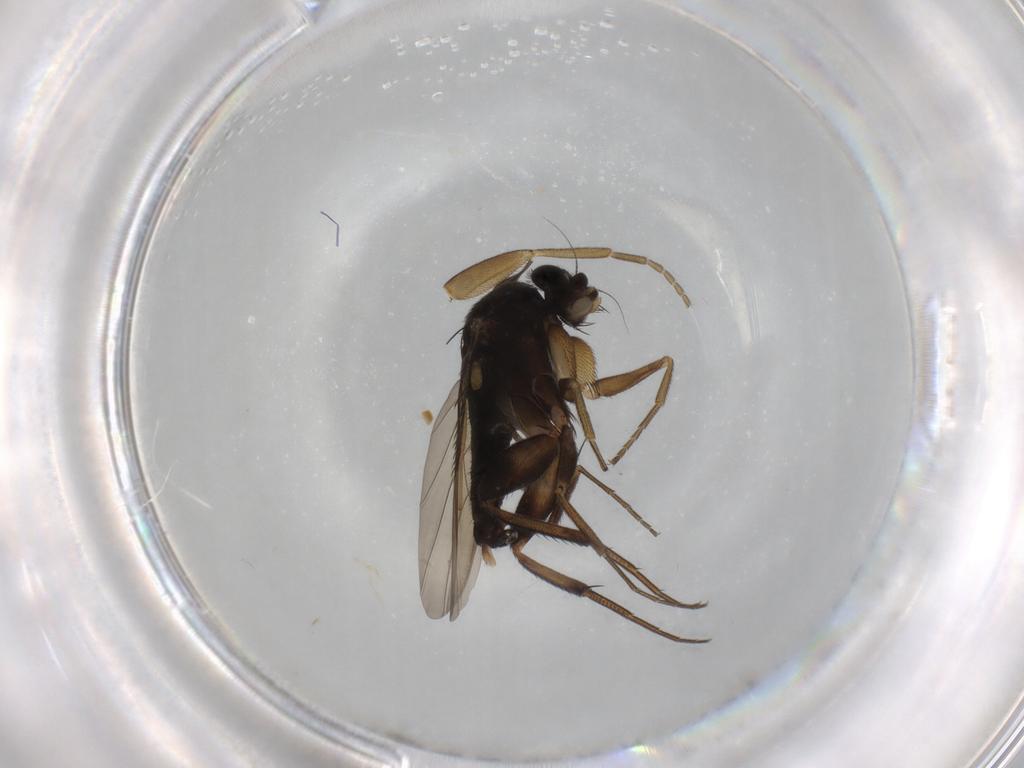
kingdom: Animalia
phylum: Arthropoda
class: Insecta
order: Diptera
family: Phoridae
